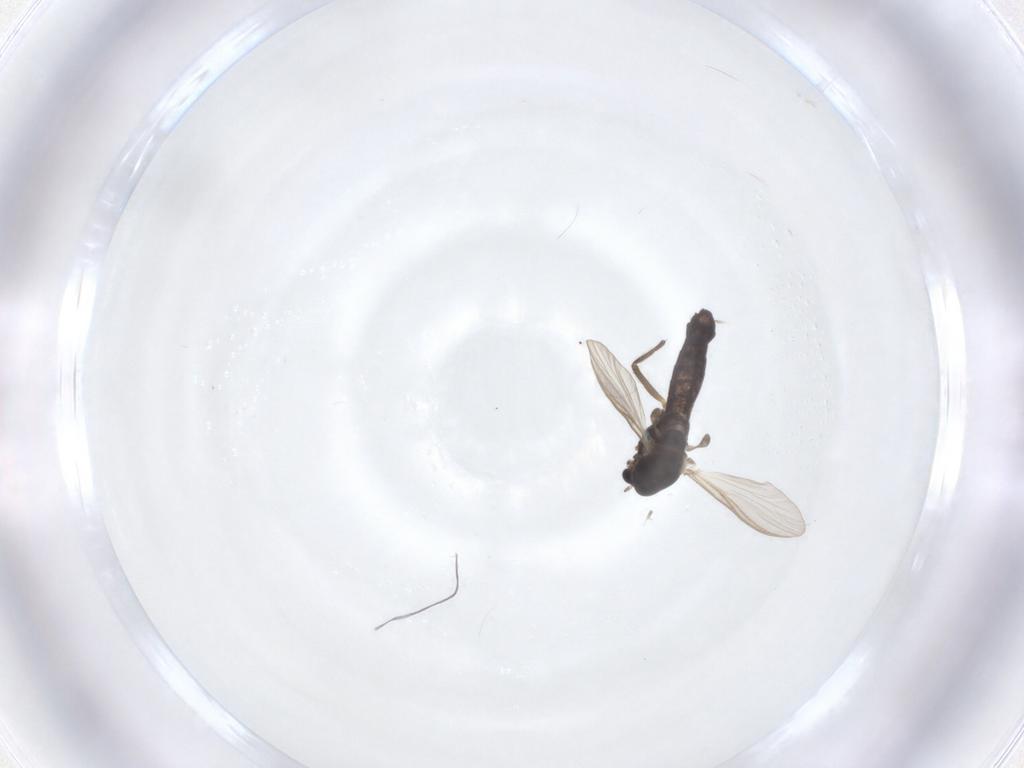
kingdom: Animalia
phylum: Arthropoda
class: Insecta
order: Diptera
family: Chironomidae
